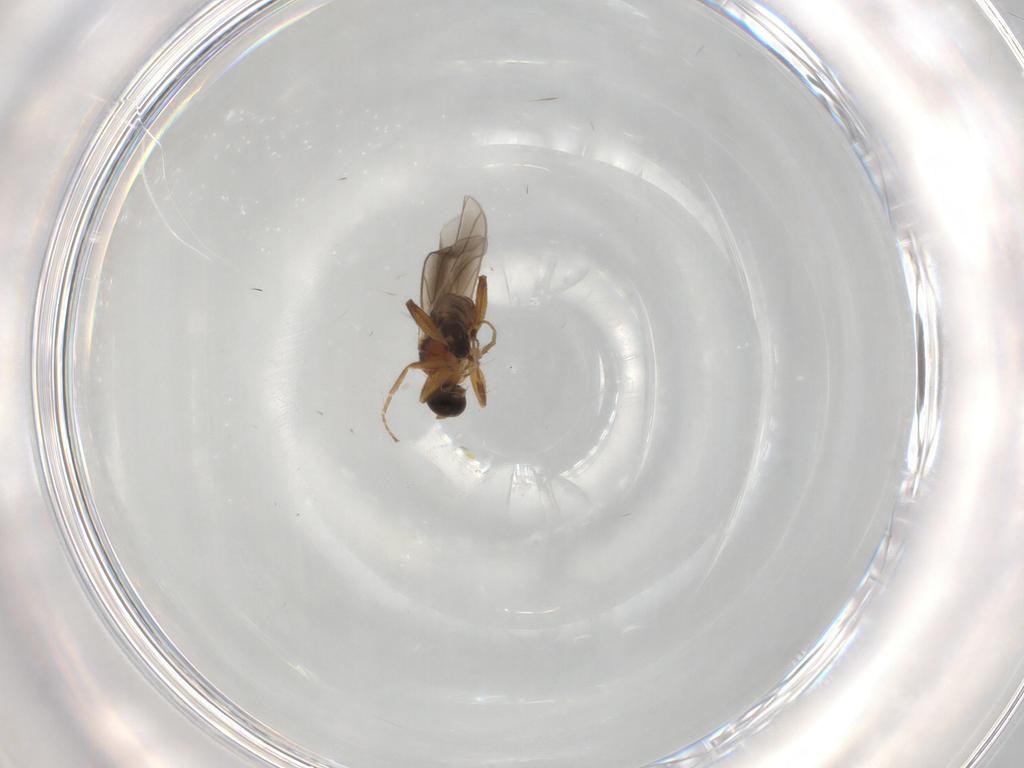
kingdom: Animalia
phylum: Arthropoda
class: Insecta
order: Diptera
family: Hybotidae
